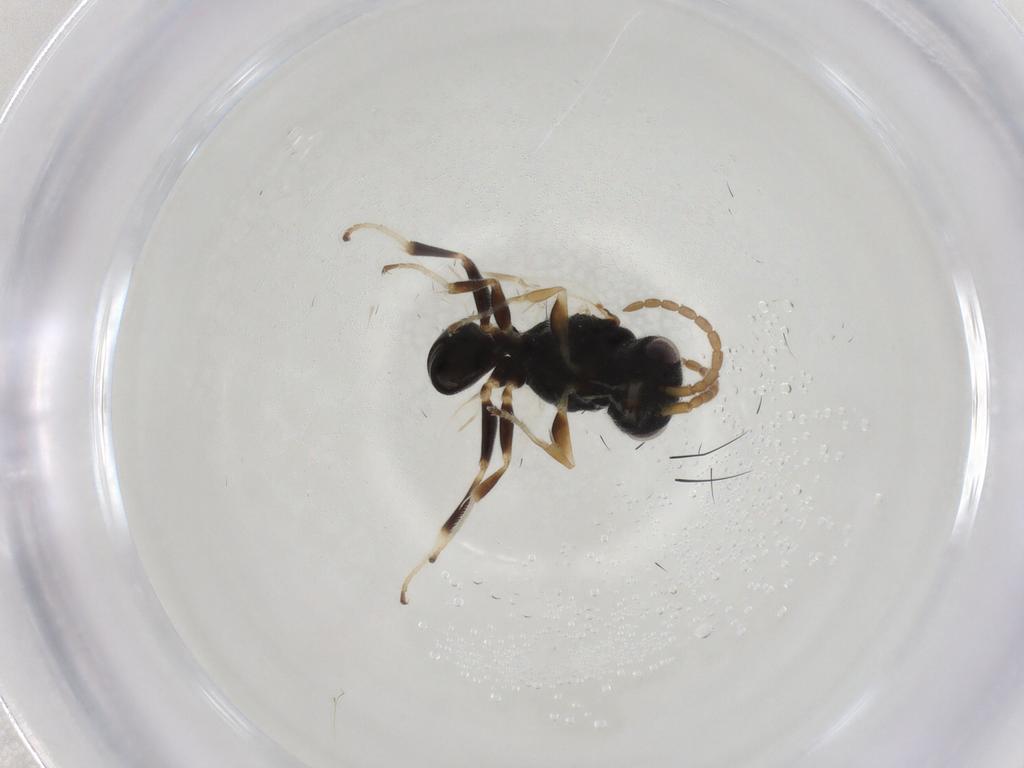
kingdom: Animalia
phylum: Arthropoda
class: Insecta
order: Hymenoptera
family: Dryinidae
